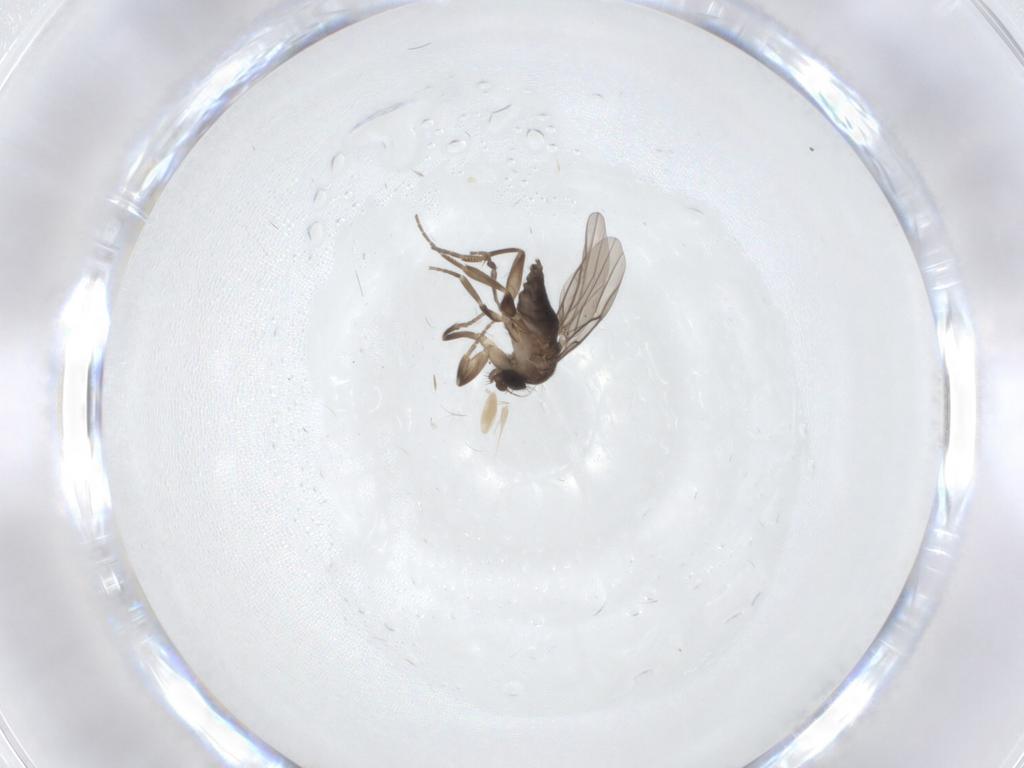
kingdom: Animalia
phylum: Arthropoda
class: Insecta
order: Diptera
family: Psychodidae
